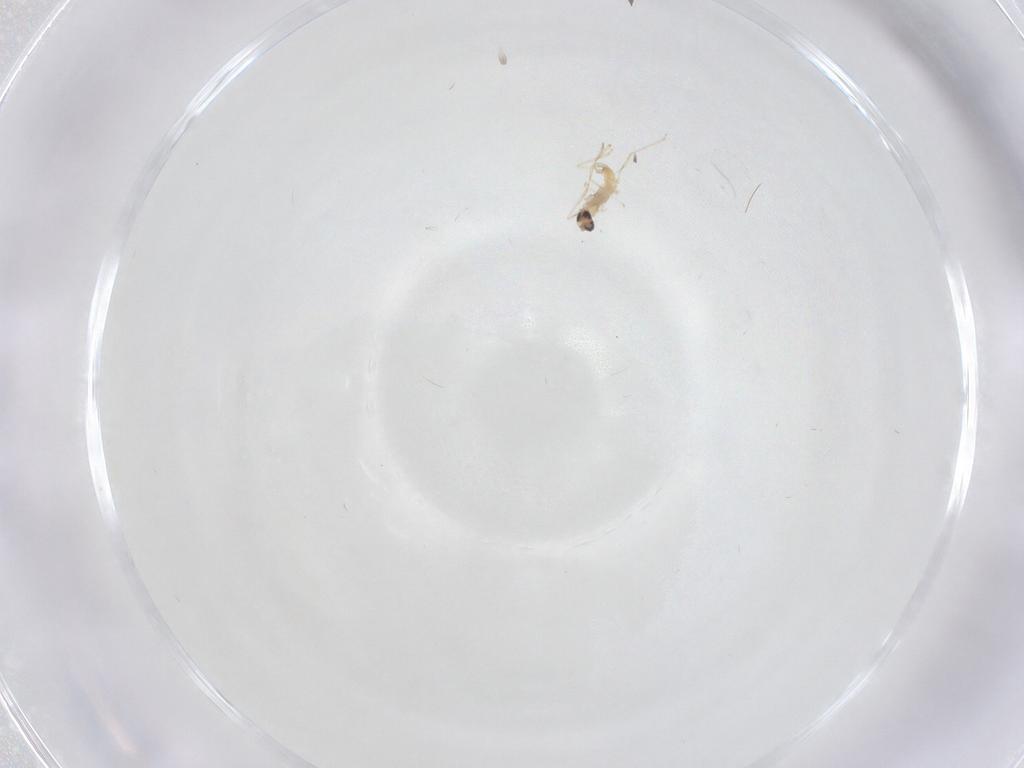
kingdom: Animalia
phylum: Arthropoda
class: Insecta
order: Diptera
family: Cecidomyiidae
